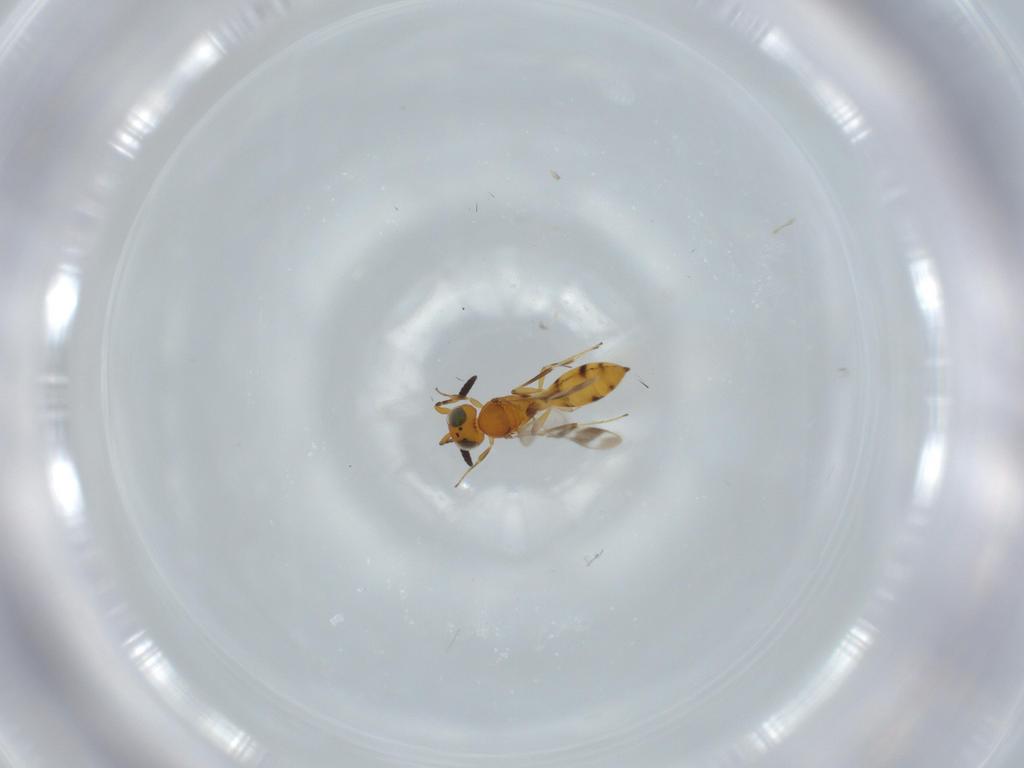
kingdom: Animalia
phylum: Arthropoda
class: Insecta
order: Hymenoptera
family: Scelionidae
